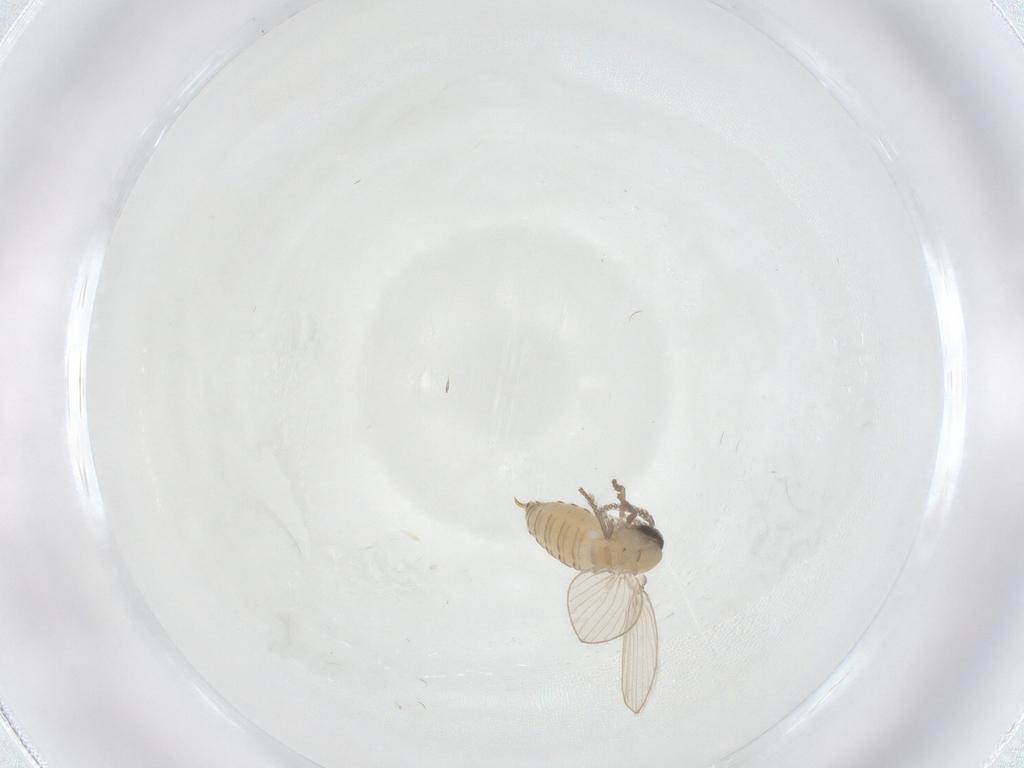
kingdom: Animalia
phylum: Arthropoda
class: Insecta
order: Diptera
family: Psychodidae
